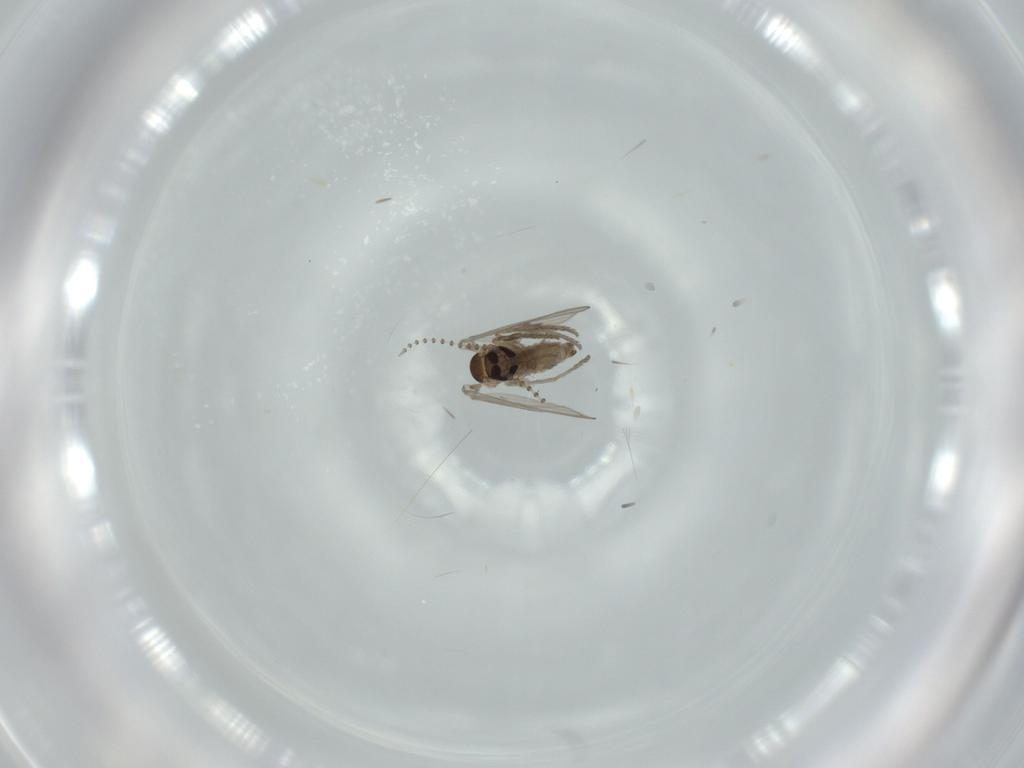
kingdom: Animalia
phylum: Arthropoda
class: Insecta
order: Diptera
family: Psychodidae
